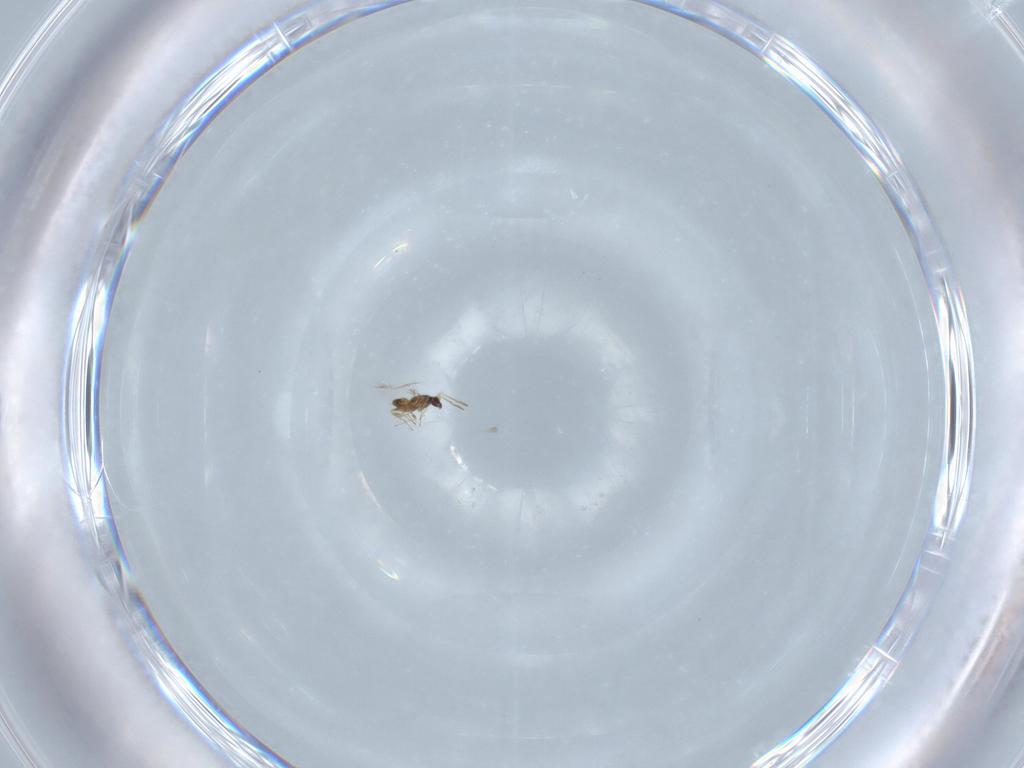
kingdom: Animalia
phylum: Arthropoda
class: Insecta
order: Hymenoptera
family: Mymaridae
